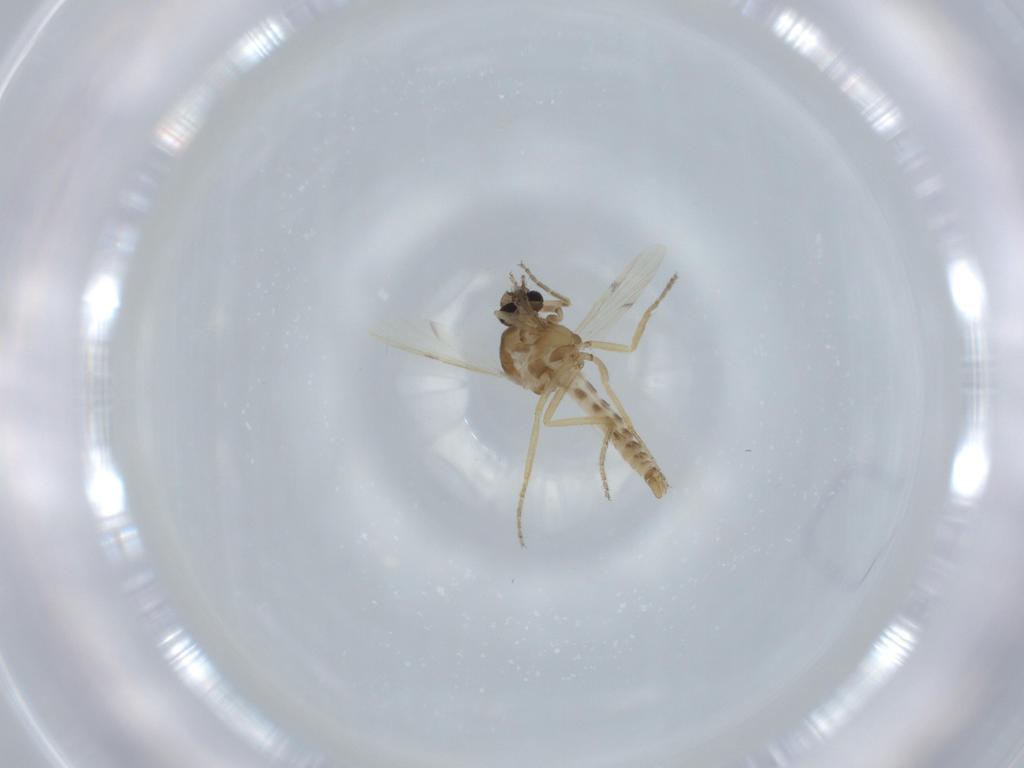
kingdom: Animalia
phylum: Arthropoda
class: Insecta
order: Diptera
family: Ceratopogonidae
